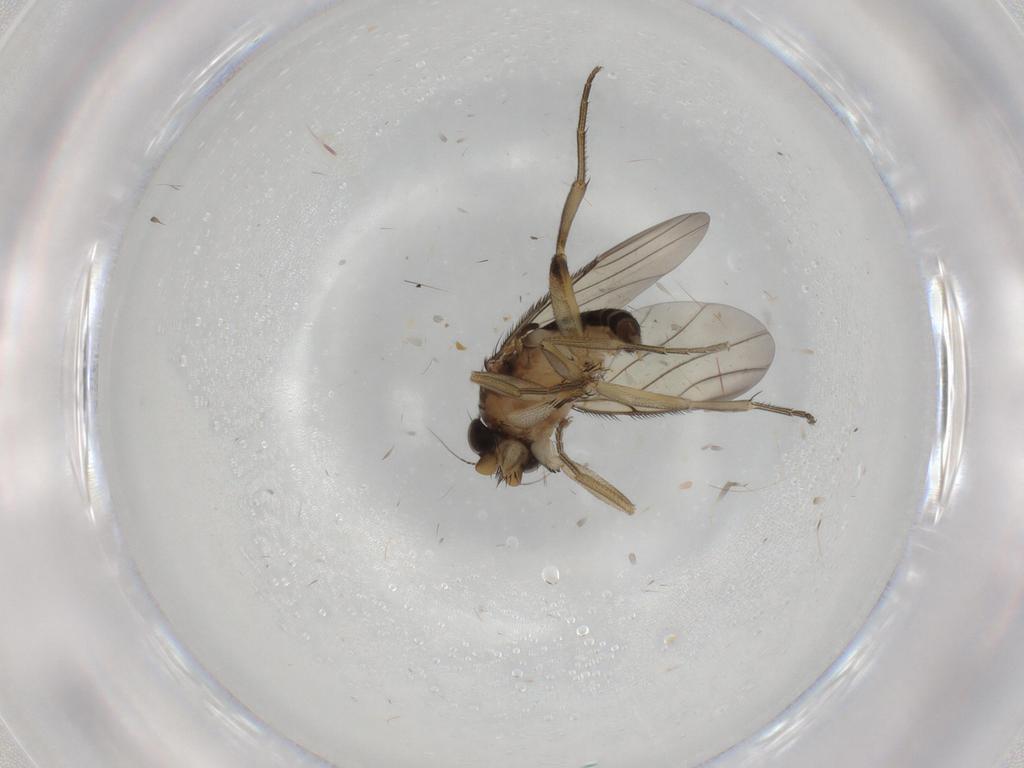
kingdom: Animalia
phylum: Arthropoda
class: Insecta
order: Diptera
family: Phoridae
